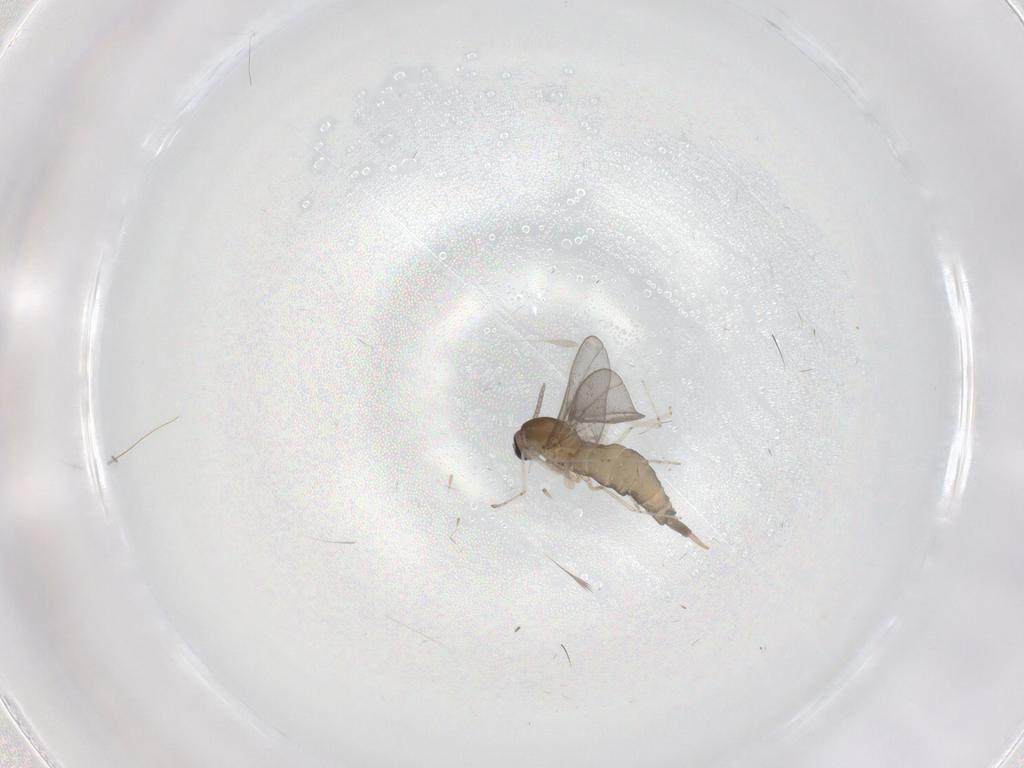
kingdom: Animalia
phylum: Arthropoda
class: Insecta
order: Diptera
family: Cecidomyiidae
